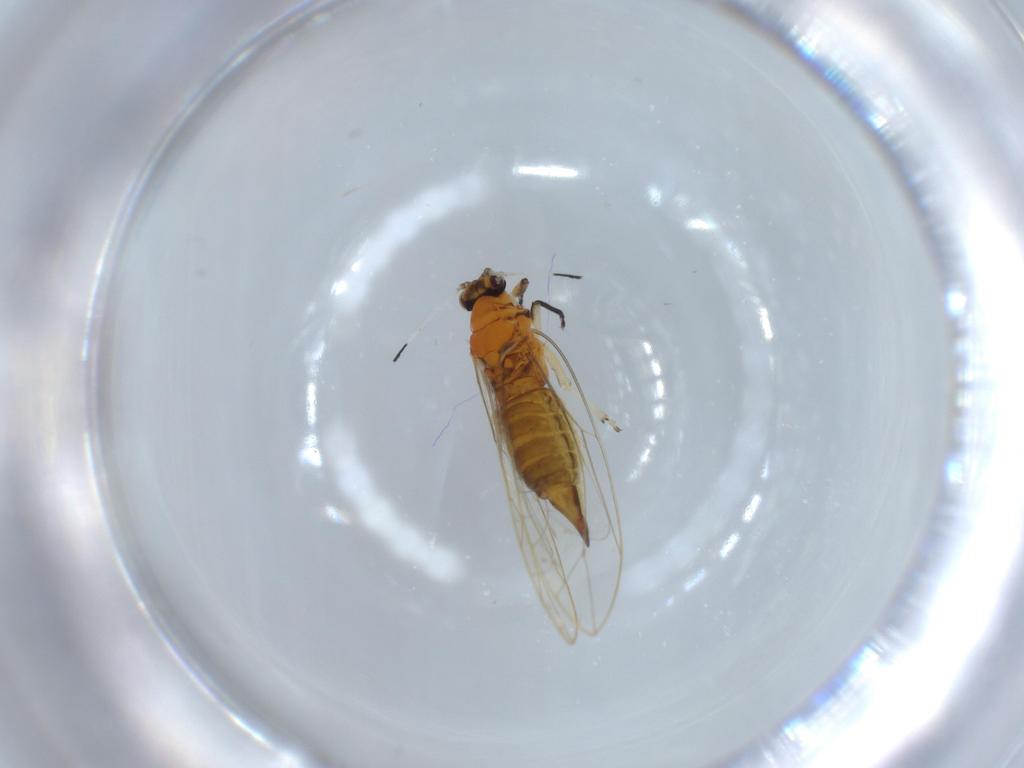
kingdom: Animalia
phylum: Arthropoda
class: Insecta
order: Hemiptera
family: Triozidae
